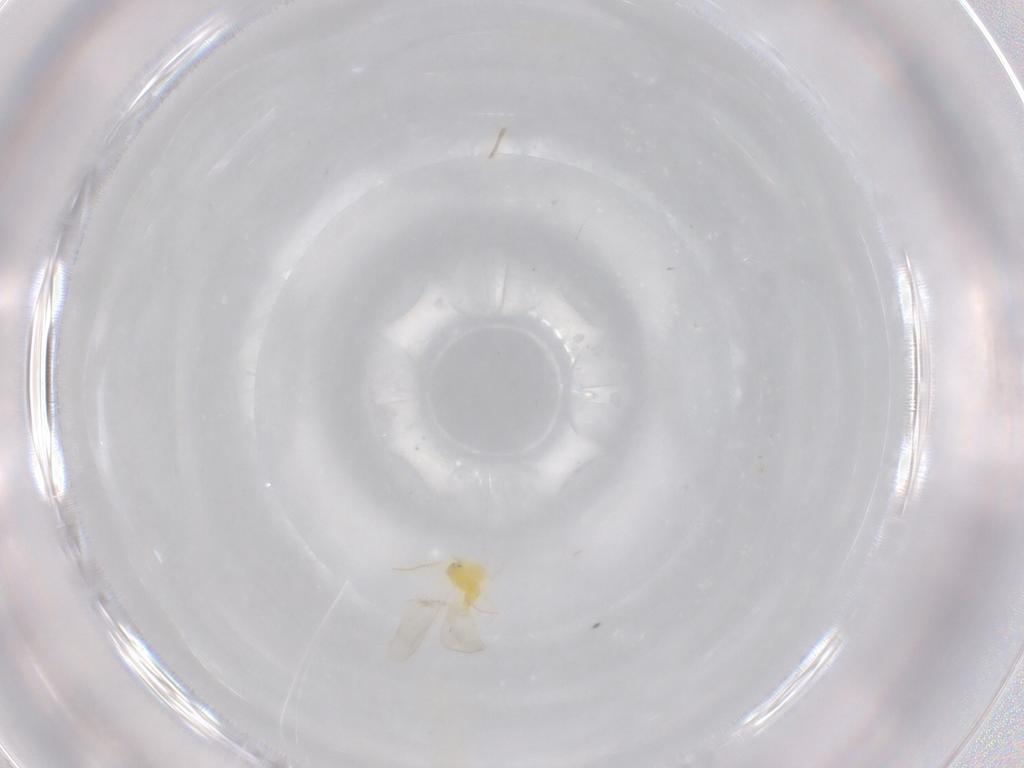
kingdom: Animalia
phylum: Arthropoda
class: Insecta
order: Hemiptera
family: Aleyrodidae
